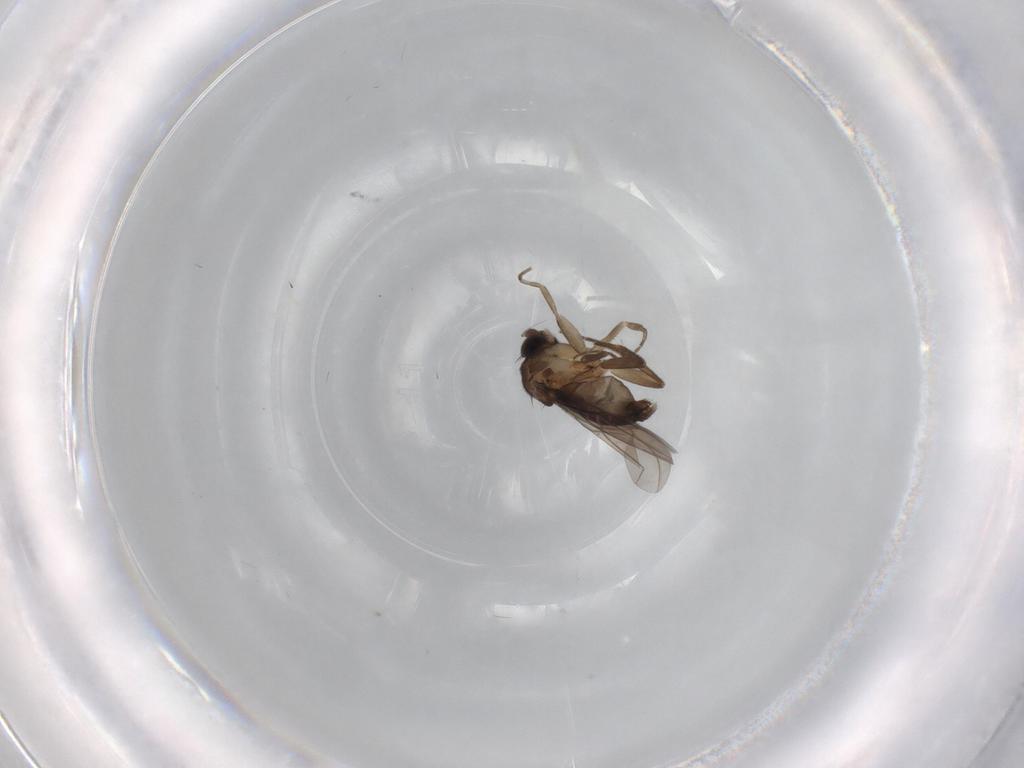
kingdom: Animalia
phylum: Arthropoda
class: Insecta
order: Diptera
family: Phoridae
